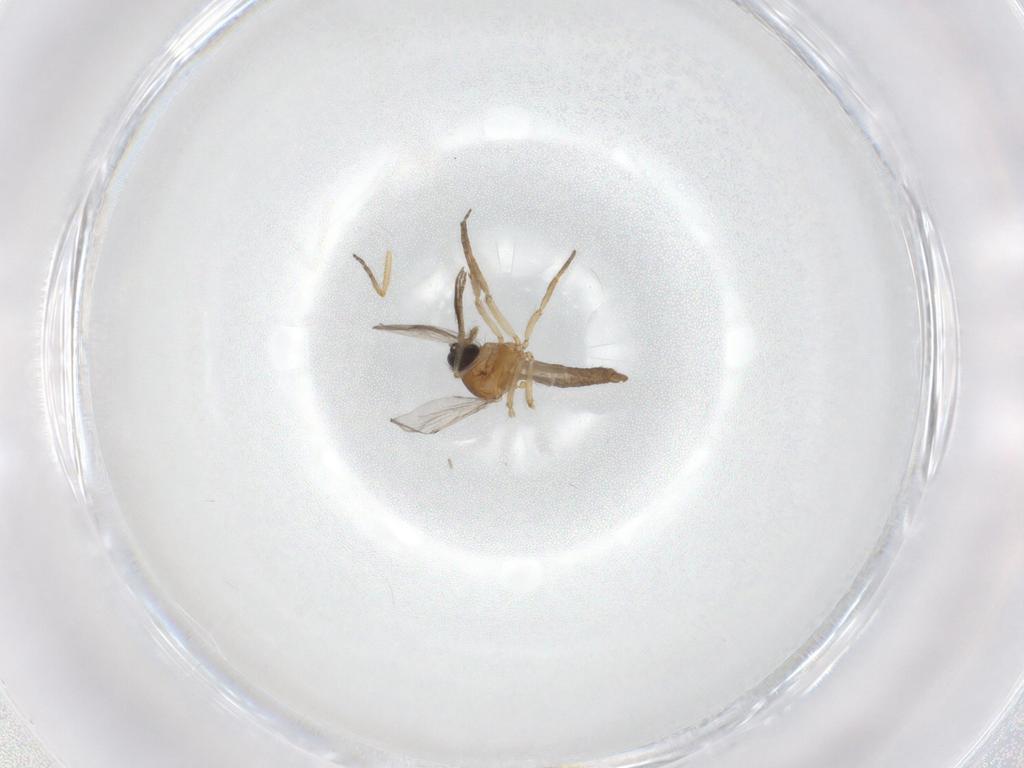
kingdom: Animalia
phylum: Arthropoda
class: Insecta
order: Diptera
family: Ceratopogonidae
